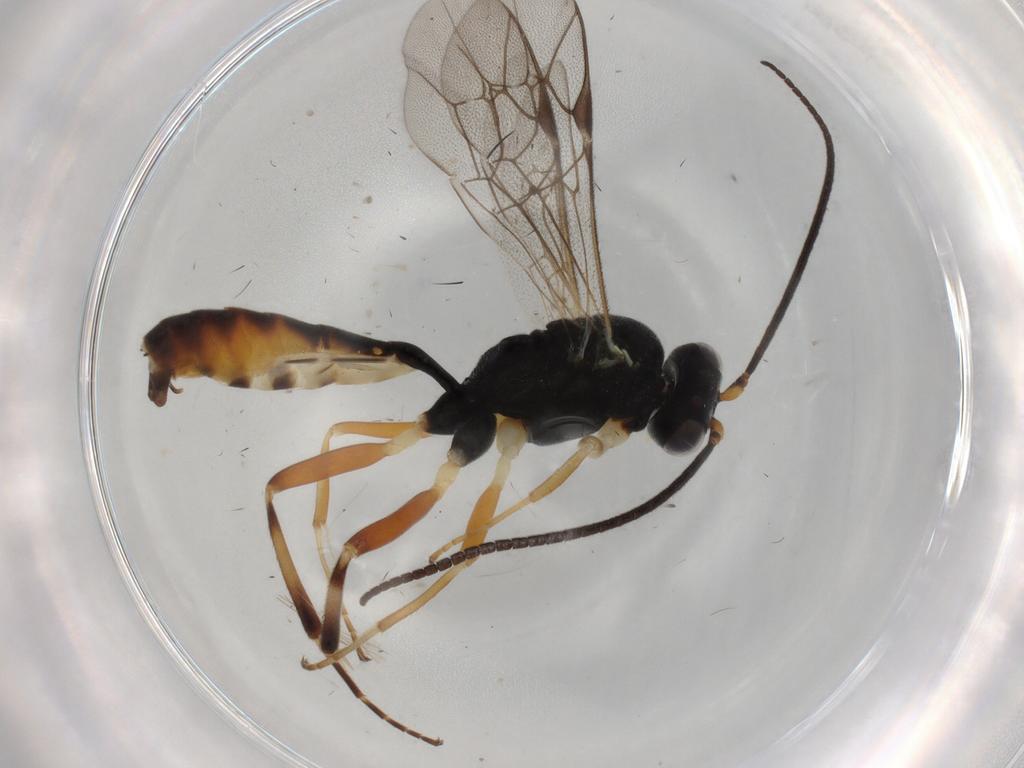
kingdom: Animalia
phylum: Arthropoda
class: Insecta
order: Hymenoptera
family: Ichneumonidae
